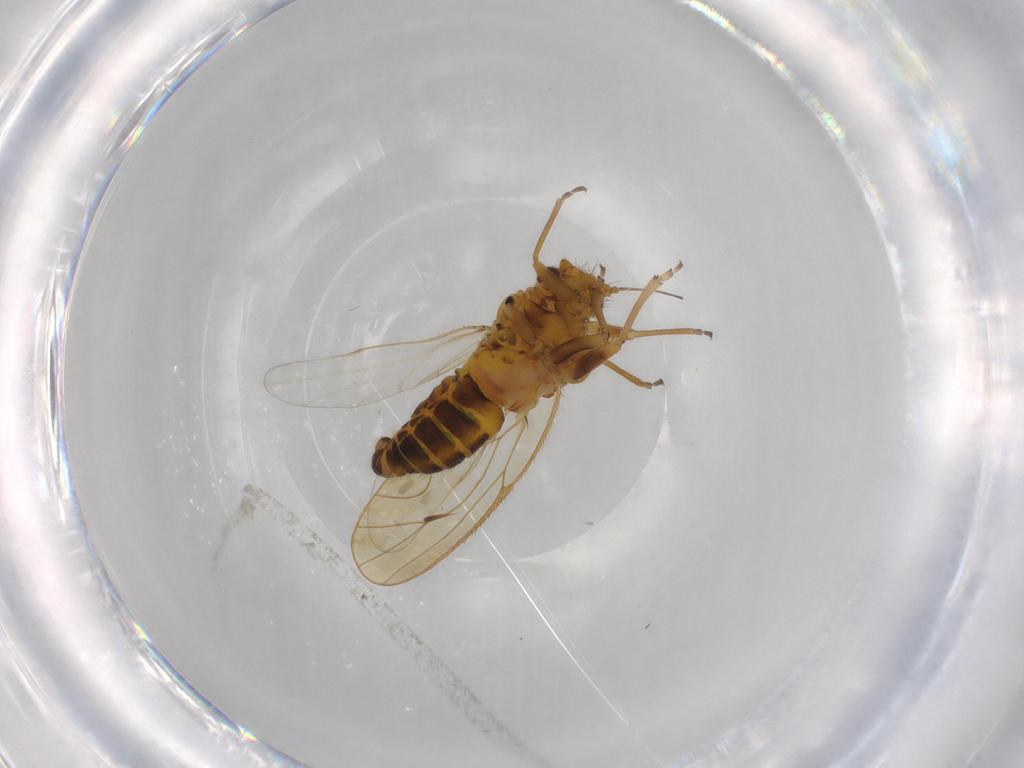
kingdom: Animalia
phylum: Arthropoda
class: Insecta
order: Hemiptera
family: Psyllidae
